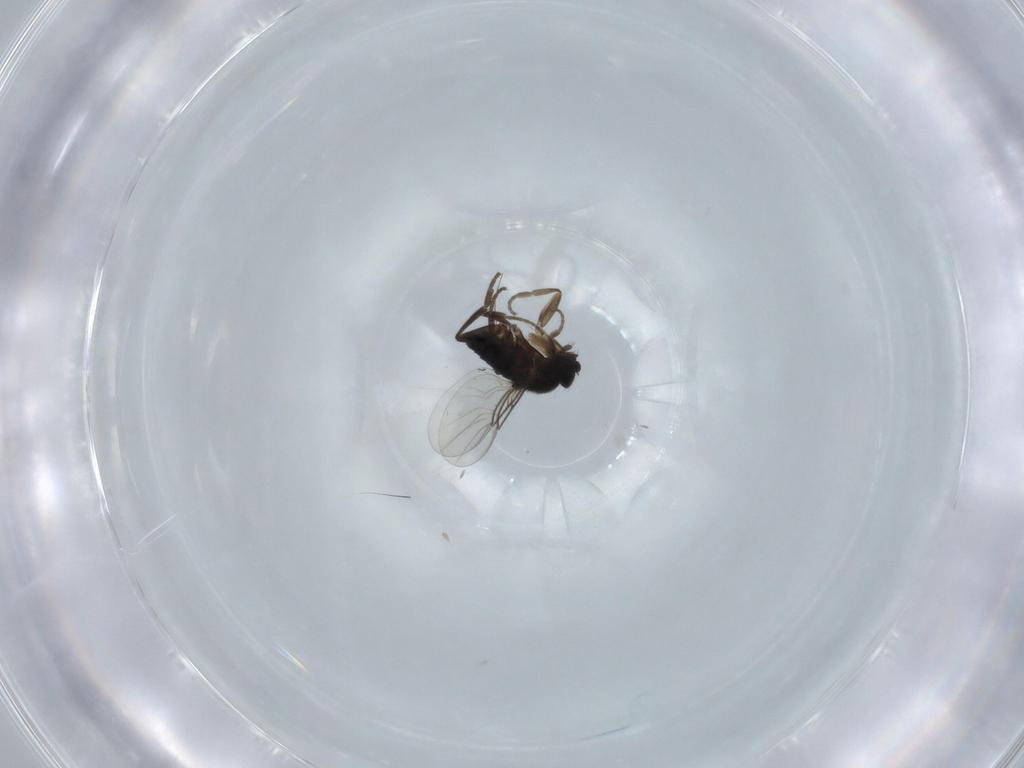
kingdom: Animalia
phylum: Arthropoda
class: Insecta
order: Diptera
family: Phoridae
